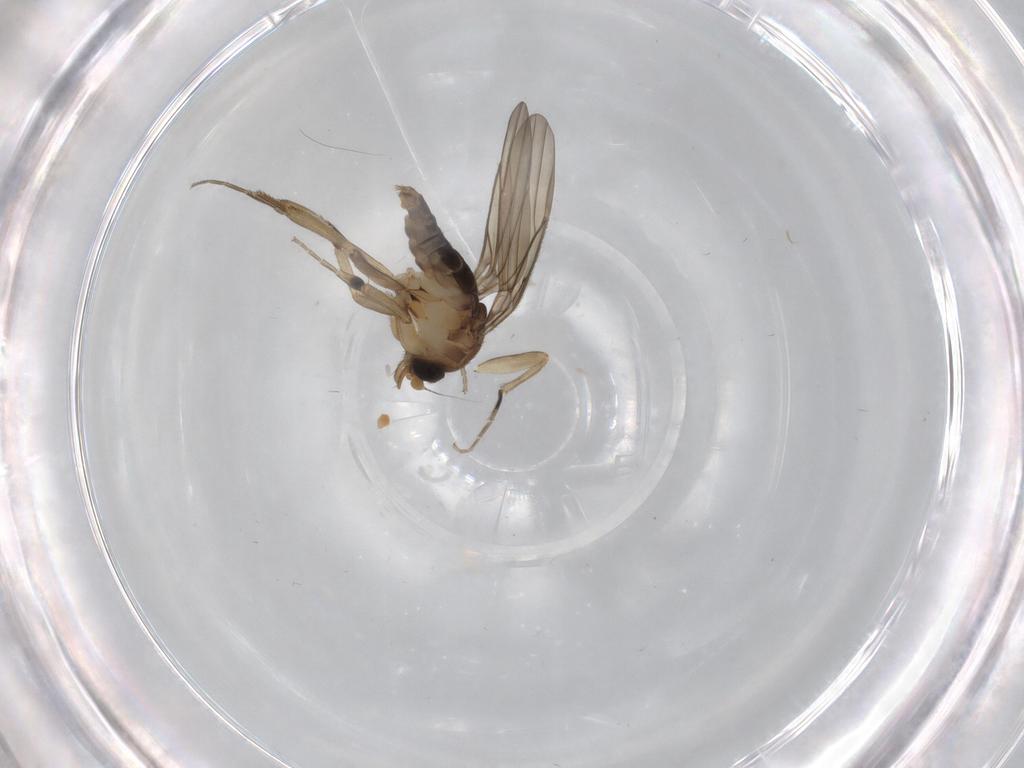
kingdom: Animalia
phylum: Arthropoda
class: Insecta
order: Diptera
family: Phoridae
